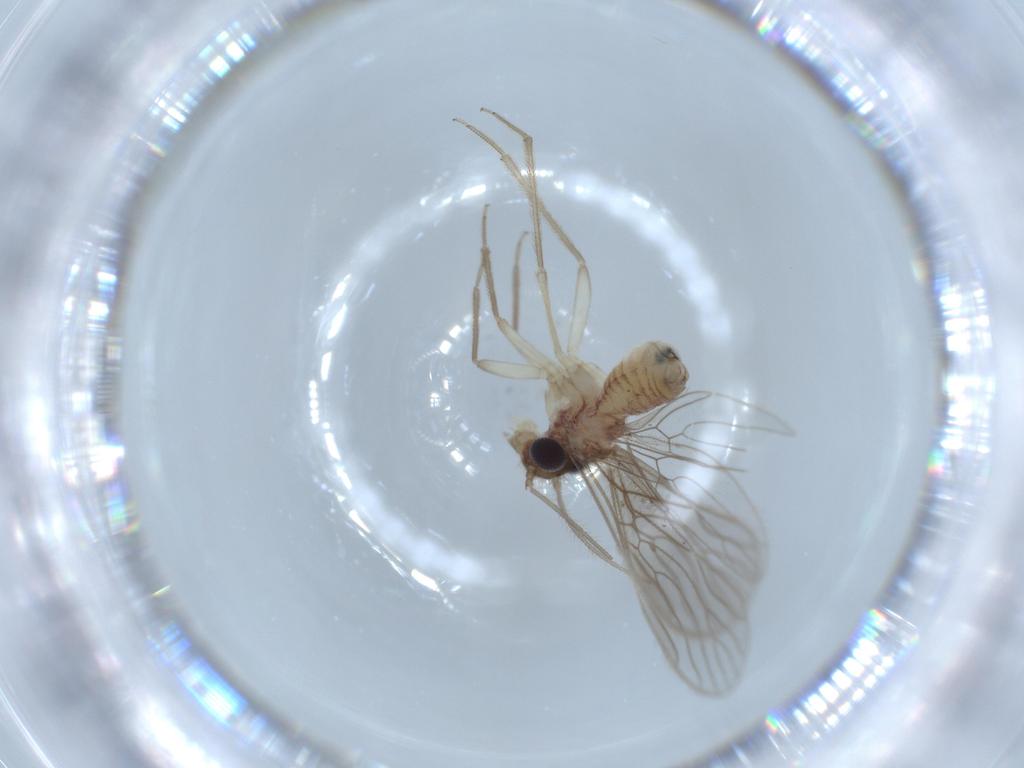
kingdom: Animalia
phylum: Arthropoda
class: Insecta
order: Psocodea
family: Cladiopsocidae
